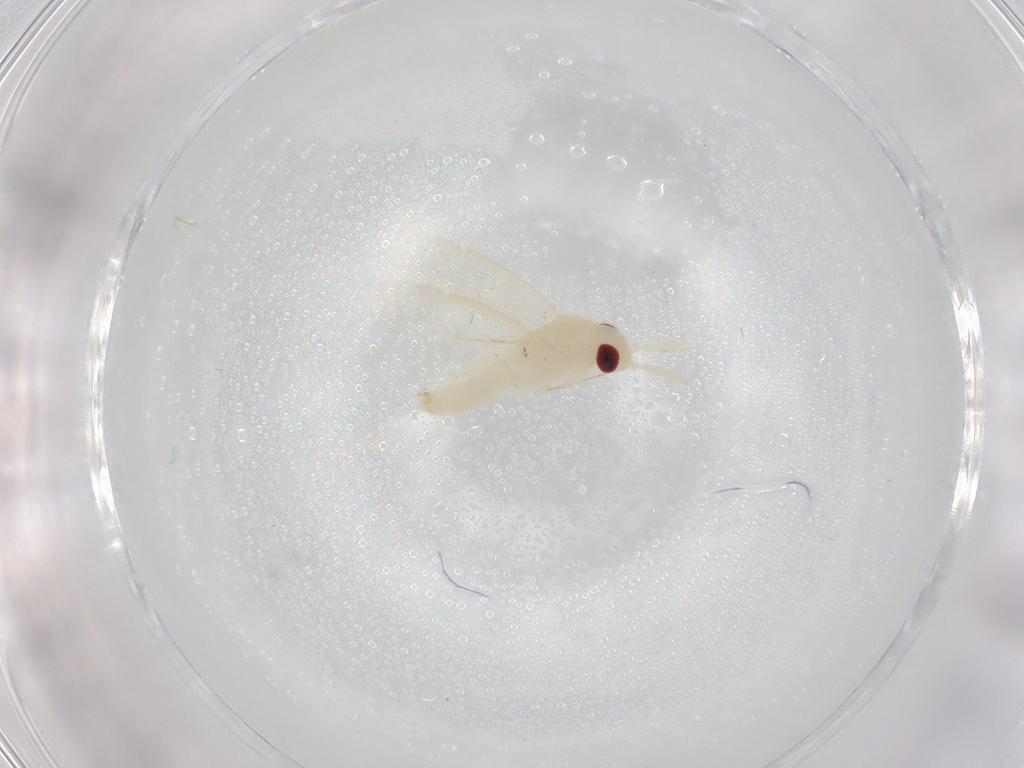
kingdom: Animalia
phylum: Arthropoda
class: Insecta
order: Hemiptera
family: Miridae
